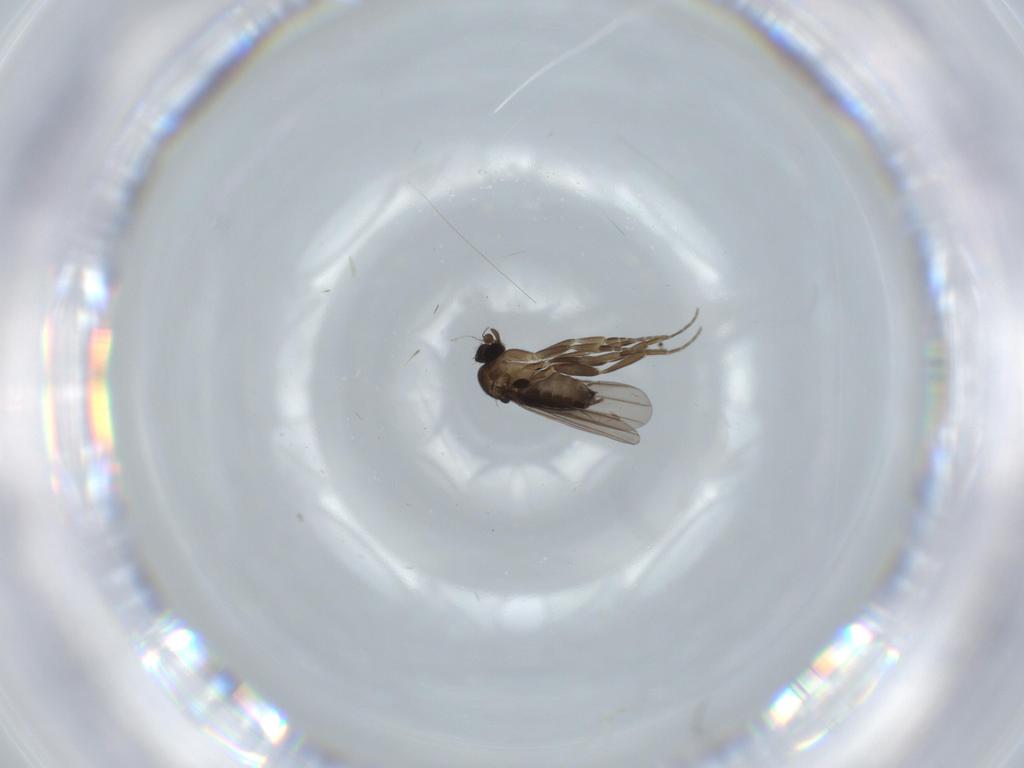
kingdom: Animalia
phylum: Arthropoda
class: Insecta
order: Diptera
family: Phoridae
